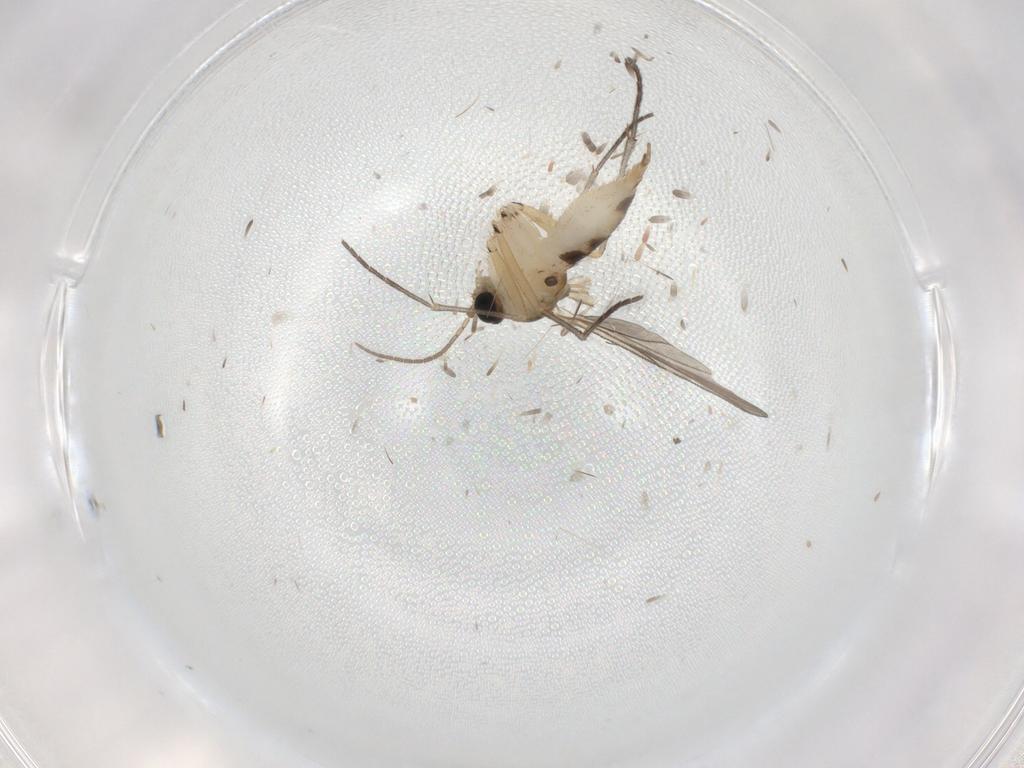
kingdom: Animalia
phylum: Arthropoda
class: Insecta
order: Diptera
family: Sciaridae
